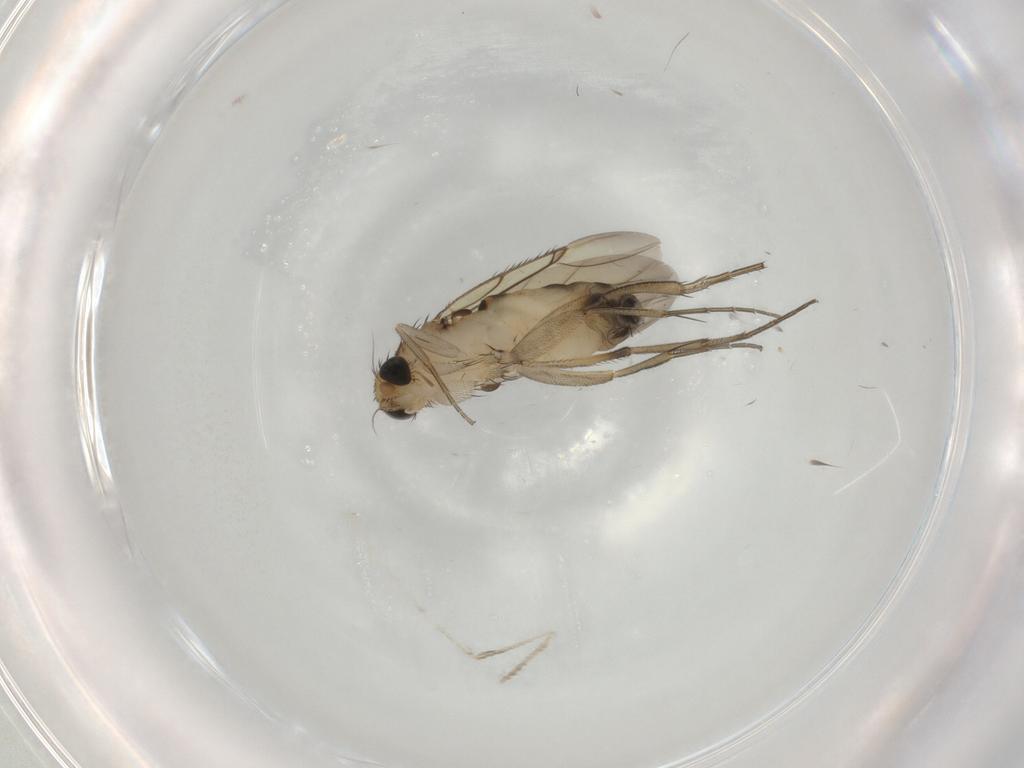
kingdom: Animalia
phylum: Arthropoda
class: Insecta
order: Diptera
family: Phoridae
